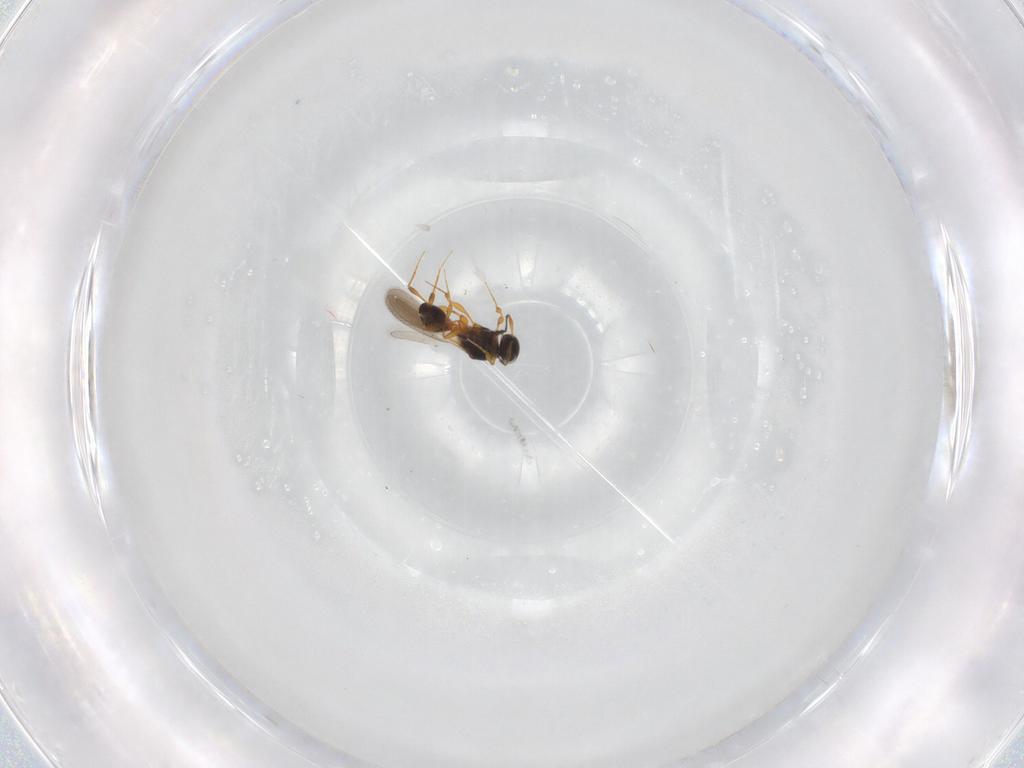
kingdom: Animalia
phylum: Arthropoda
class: Insecta
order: Hymenoptera
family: Platygastridae
